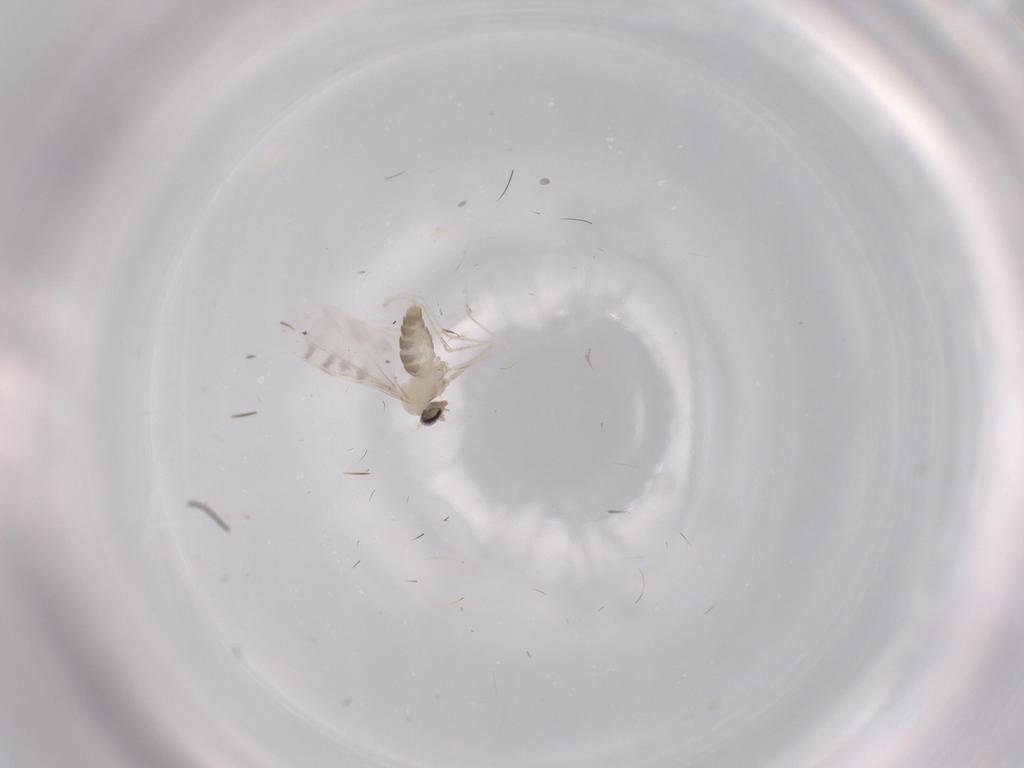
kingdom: Animalia
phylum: Arthropoda
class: Insecta
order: Diptera
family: Cecidomyiidae
